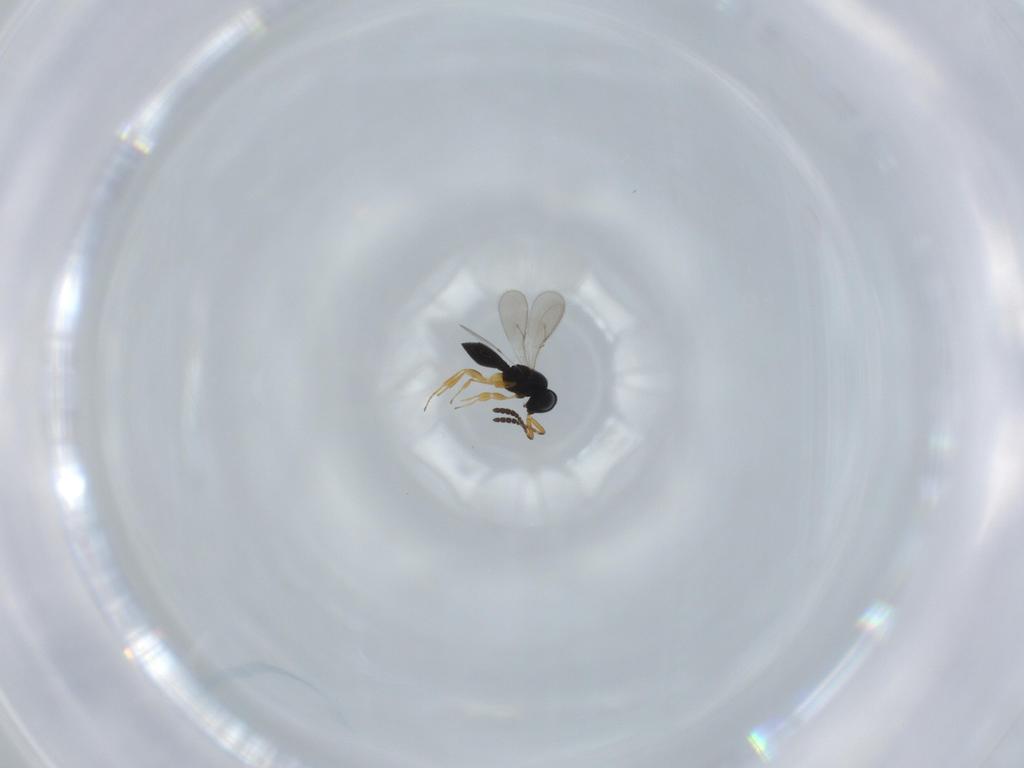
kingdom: Animalia
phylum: Arthropoda
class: Insecta
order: Hymenoptera
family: Scelionidae
